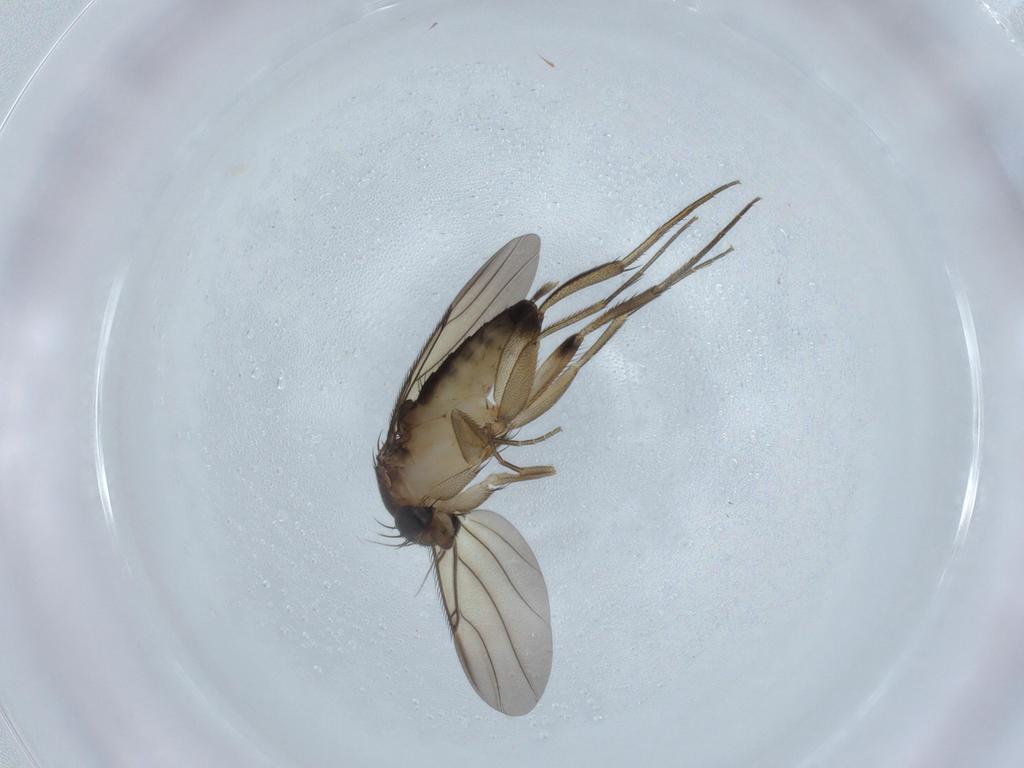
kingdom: Animalia
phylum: Arthropoda
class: Insecta
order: Diptera
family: Phoridae
